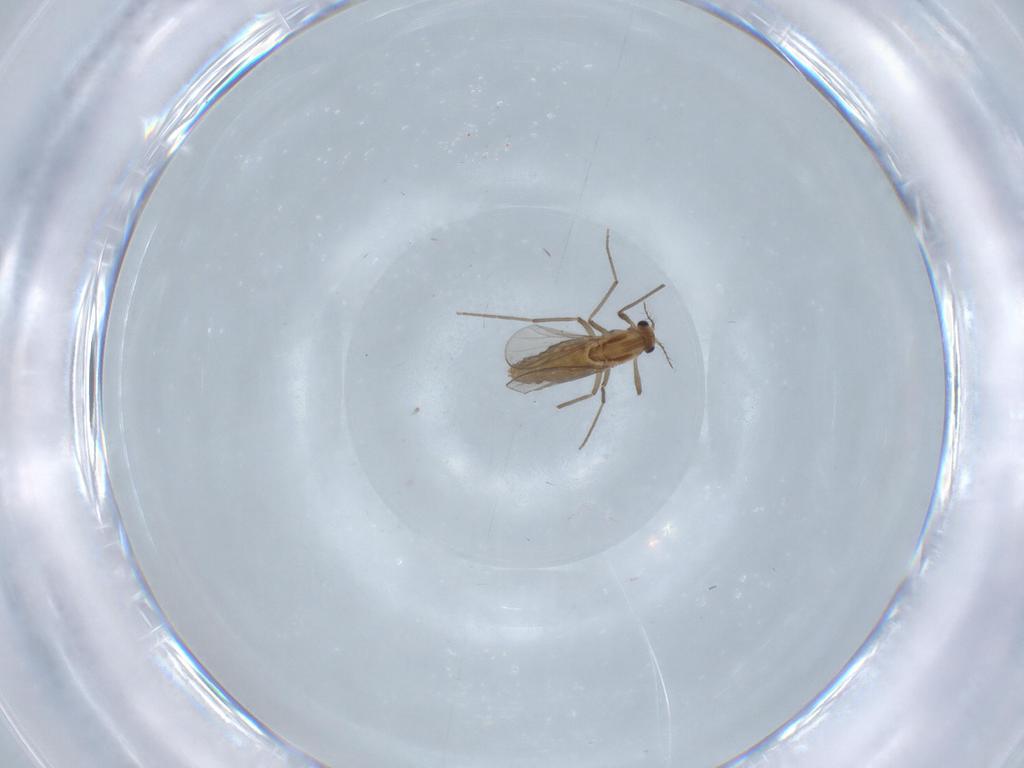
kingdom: Animalia
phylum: Arthropoda
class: Insecta
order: Diptera
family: Chironomidae
